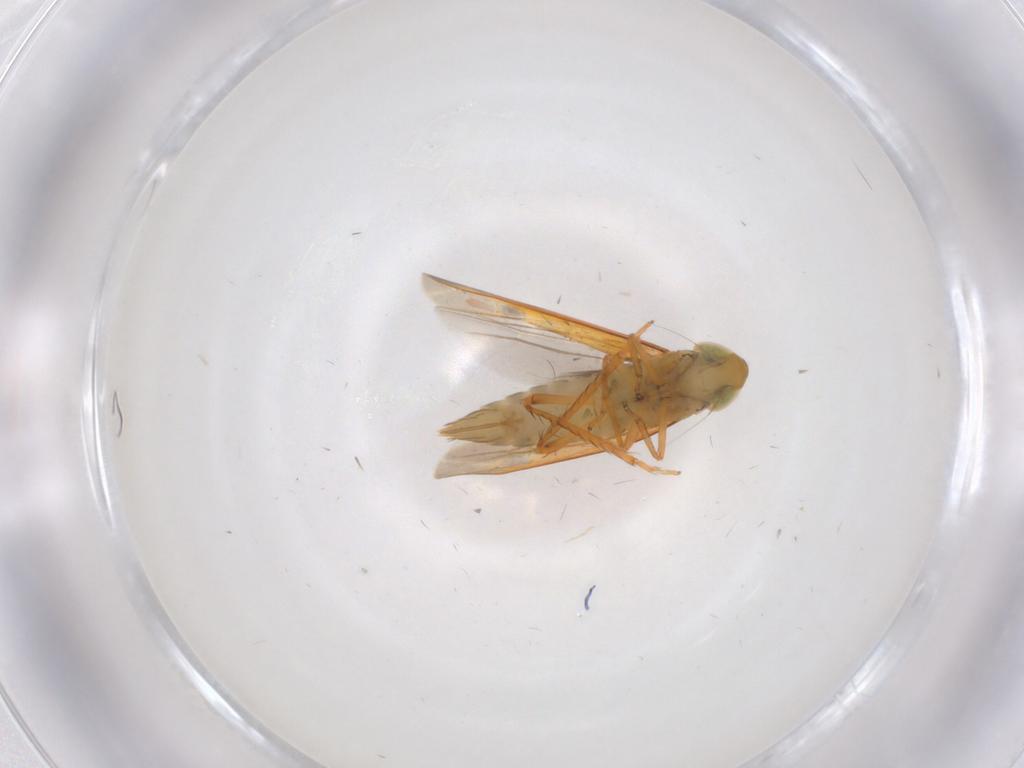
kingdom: Animalia
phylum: Arthropoda
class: Insecta
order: Hemiptera
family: Cicadellidae
